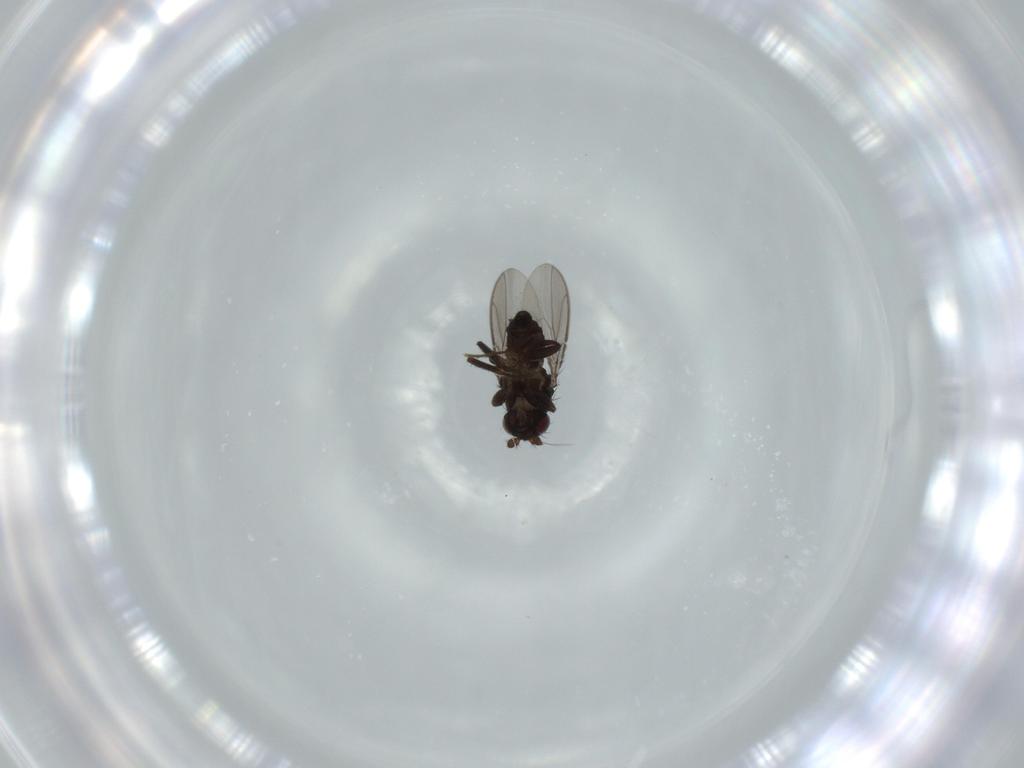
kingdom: Animalia
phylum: Arthropoda
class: Insecta
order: Diptera
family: Sphaeroceridae
